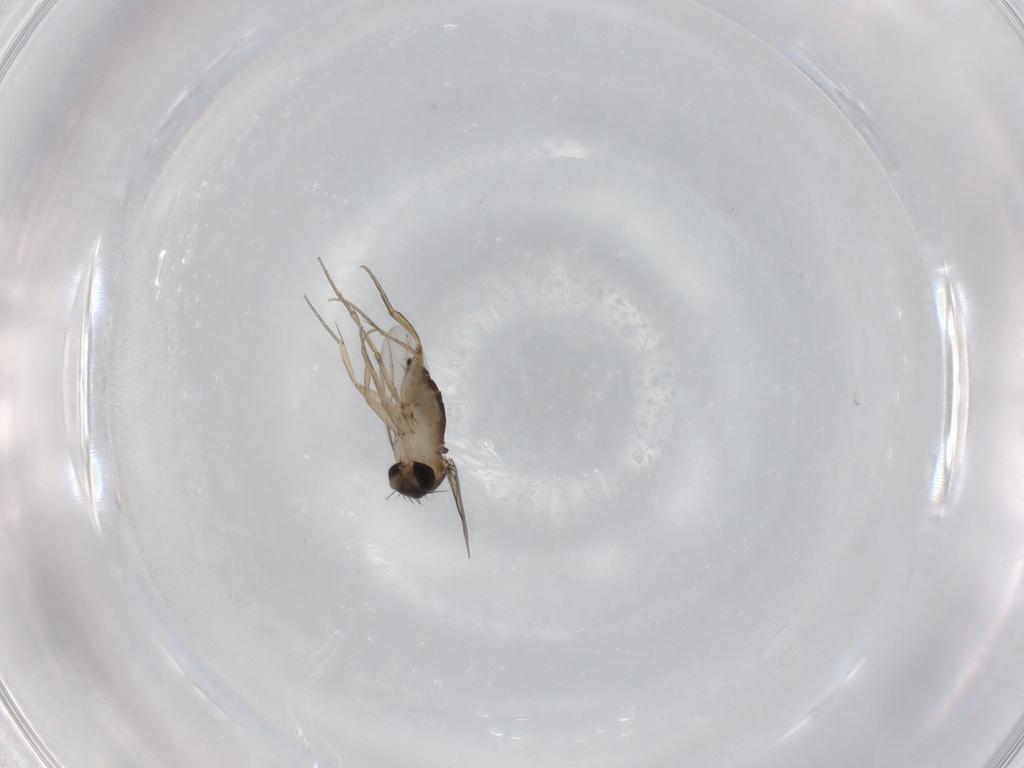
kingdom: Animalia
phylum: Arthropoda
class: Insecta
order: Diptera
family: Phoridae
